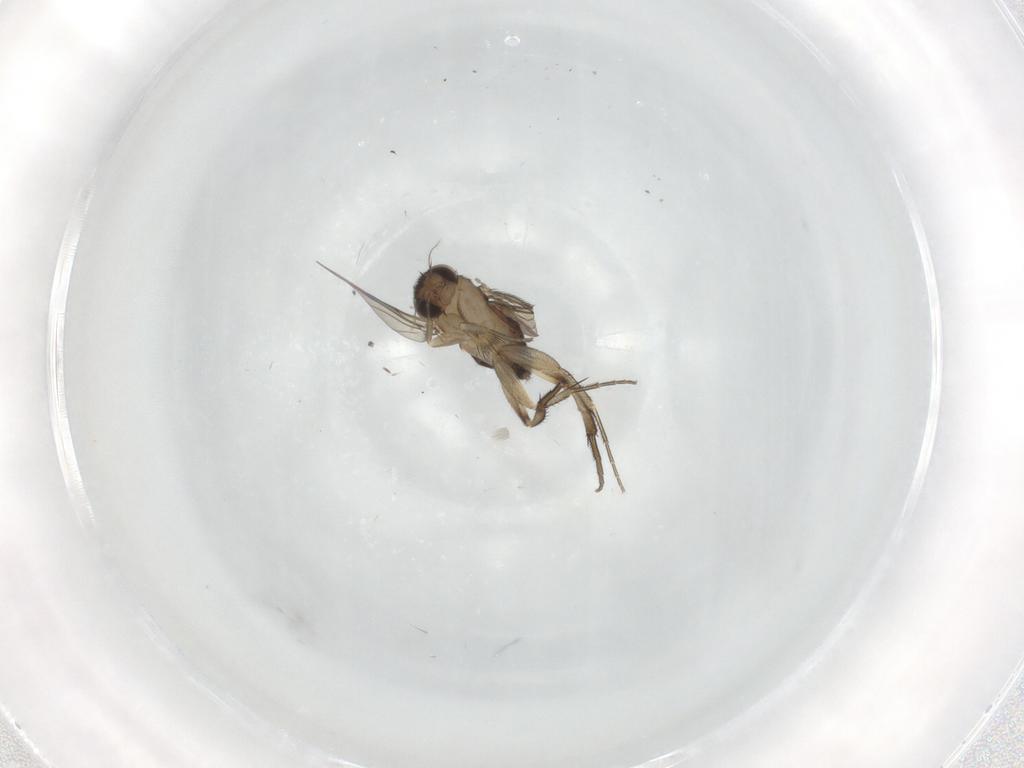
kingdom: Animalia
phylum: Arthropoda
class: Insecta
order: Diptera
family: Phoridae
